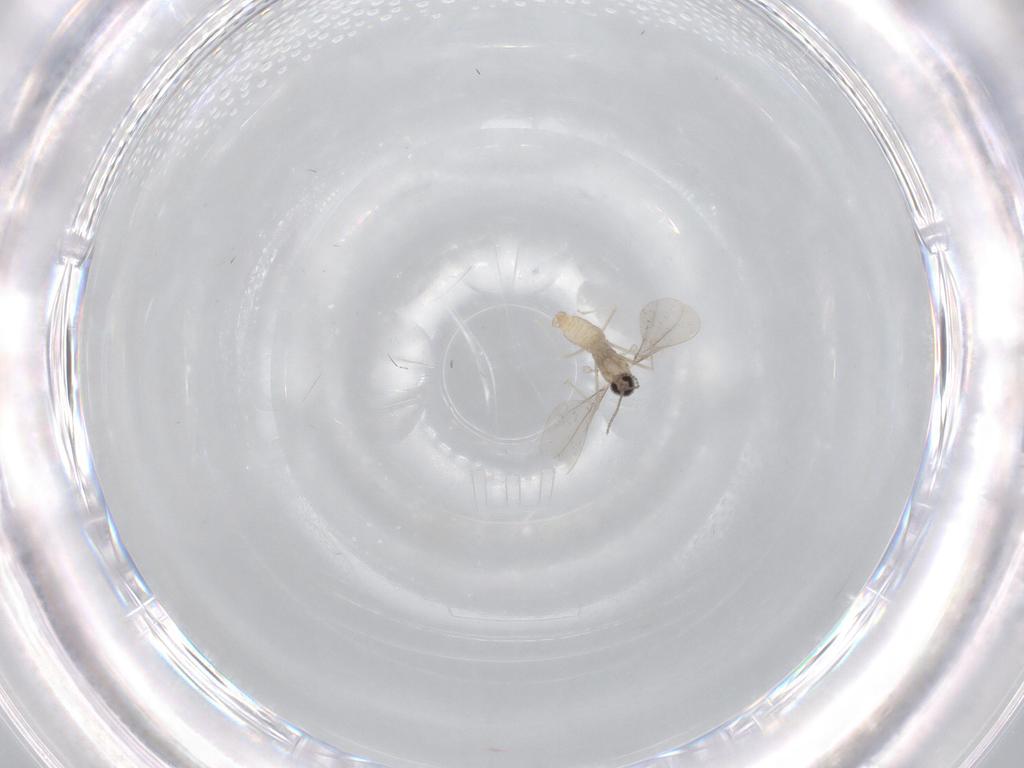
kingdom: Animalia
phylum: Arthropoda
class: Insecta
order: Diptera
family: Cecidomyiidae
